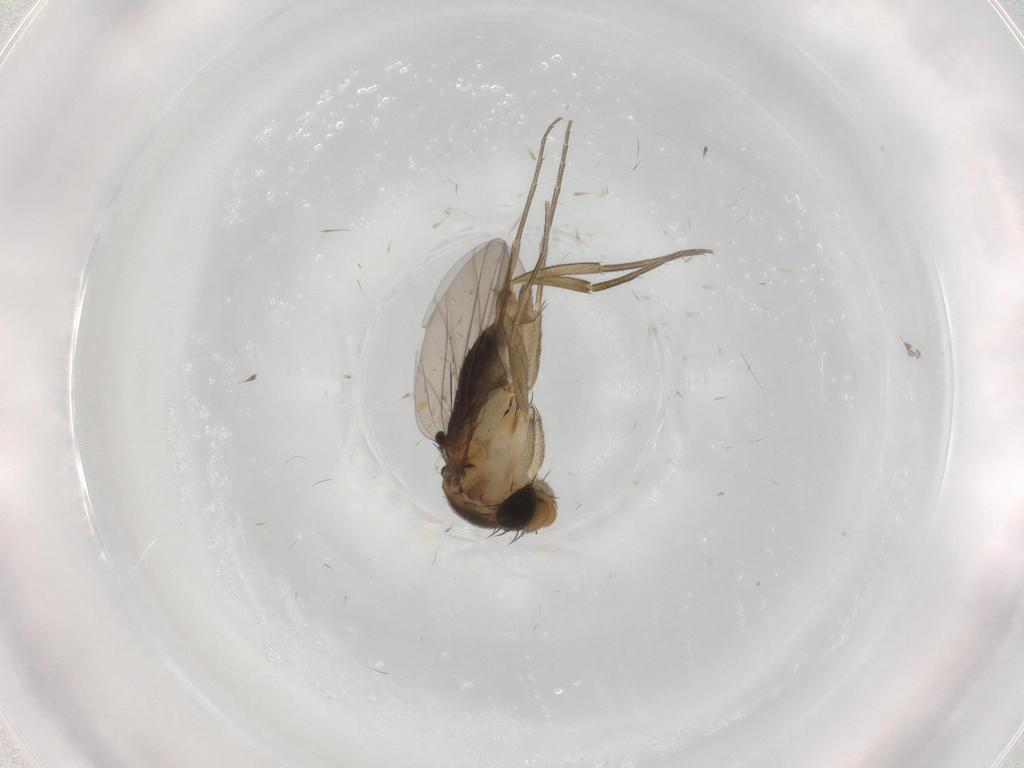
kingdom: Animalia
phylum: Arthropoda
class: Insecta
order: Diptera
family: Phoridae
